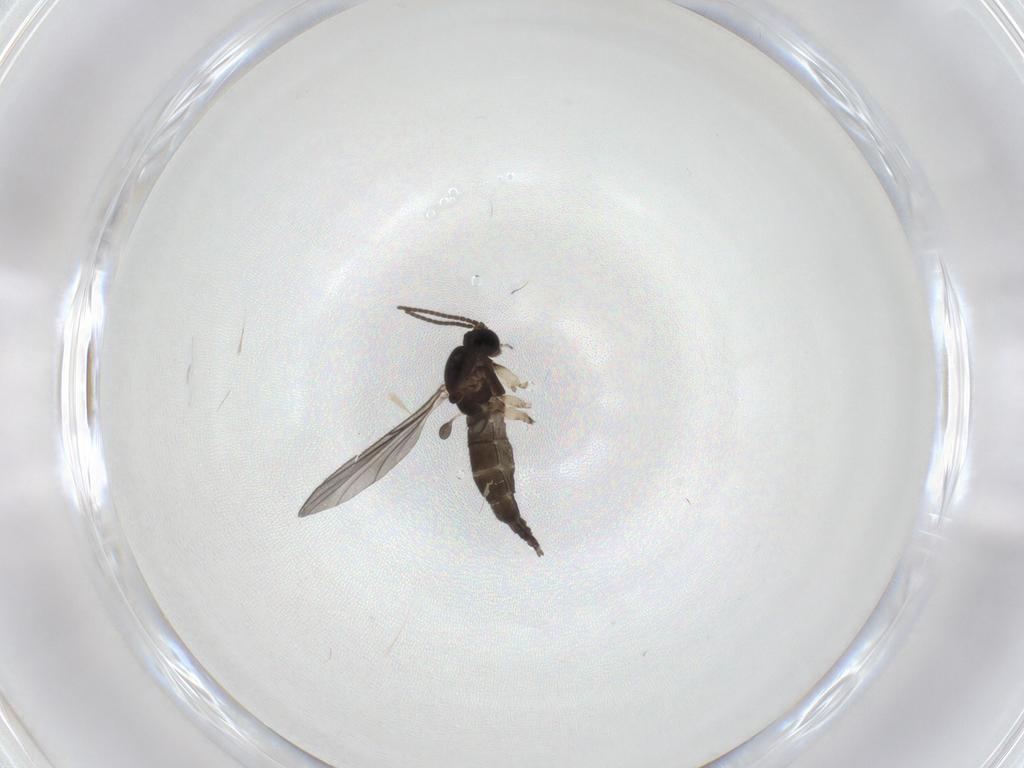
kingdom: Animalia
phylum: Arthropoda
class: Insecta
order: Diptera
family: Sciaridae
